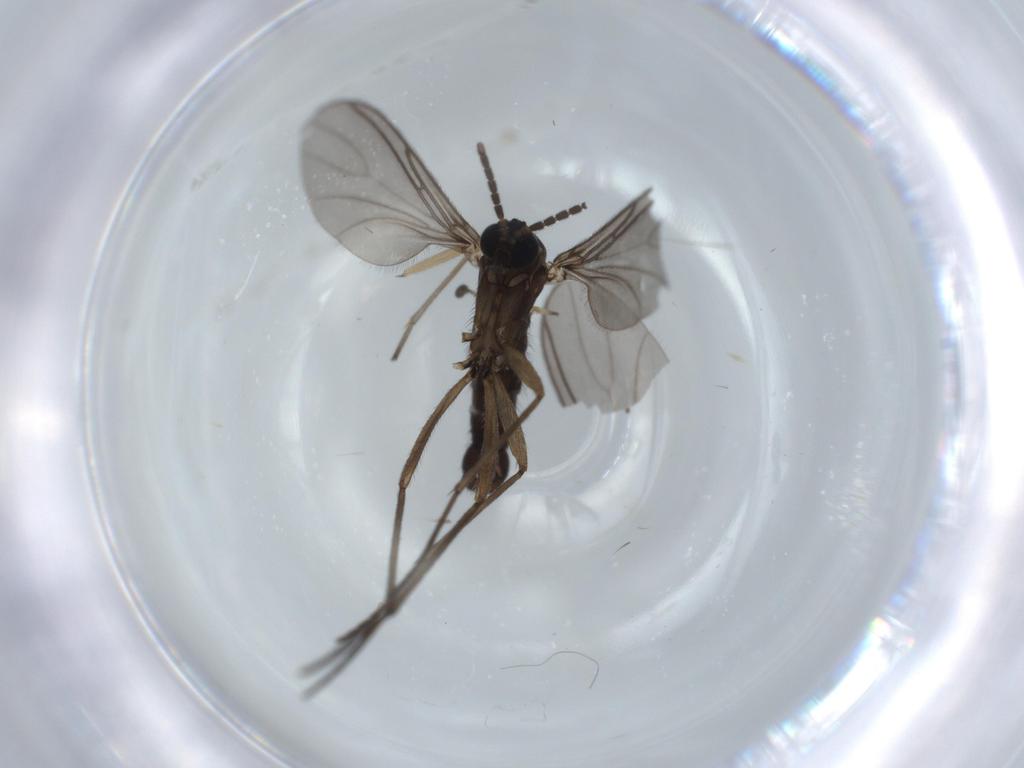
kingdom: Animalia
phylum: Arthropoda
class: Insecta
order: Diptera
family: Sciaridae
